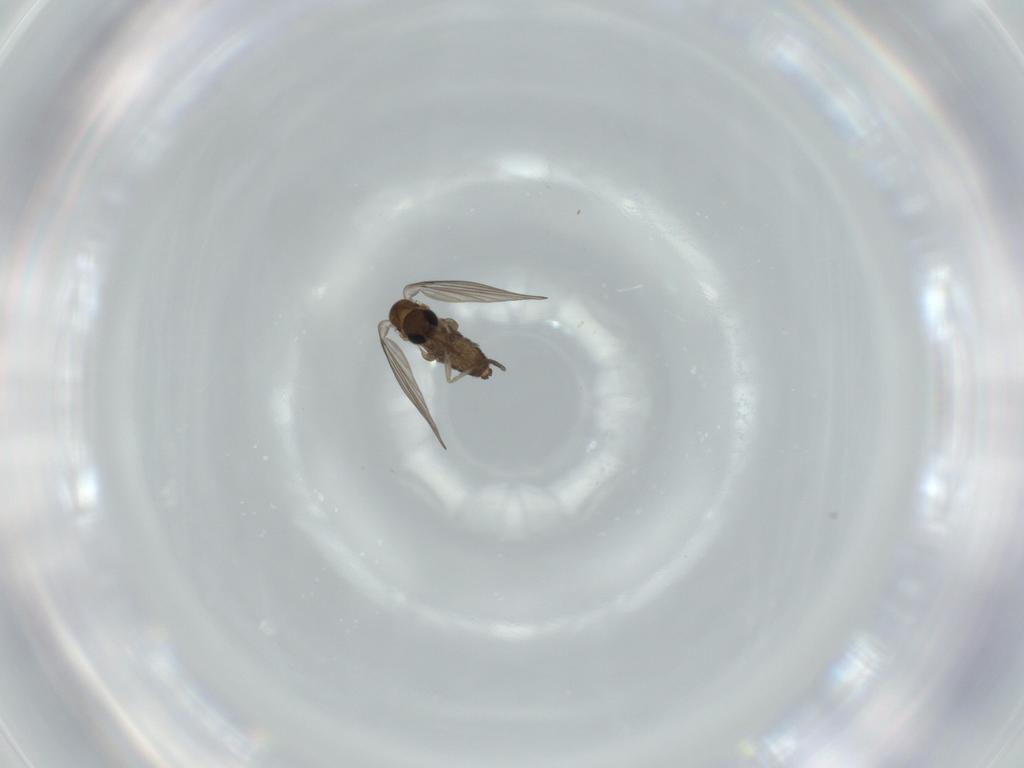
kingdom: Animalia
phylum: Arthropoda
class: Insecta
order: Diptera
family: Psychodidae
